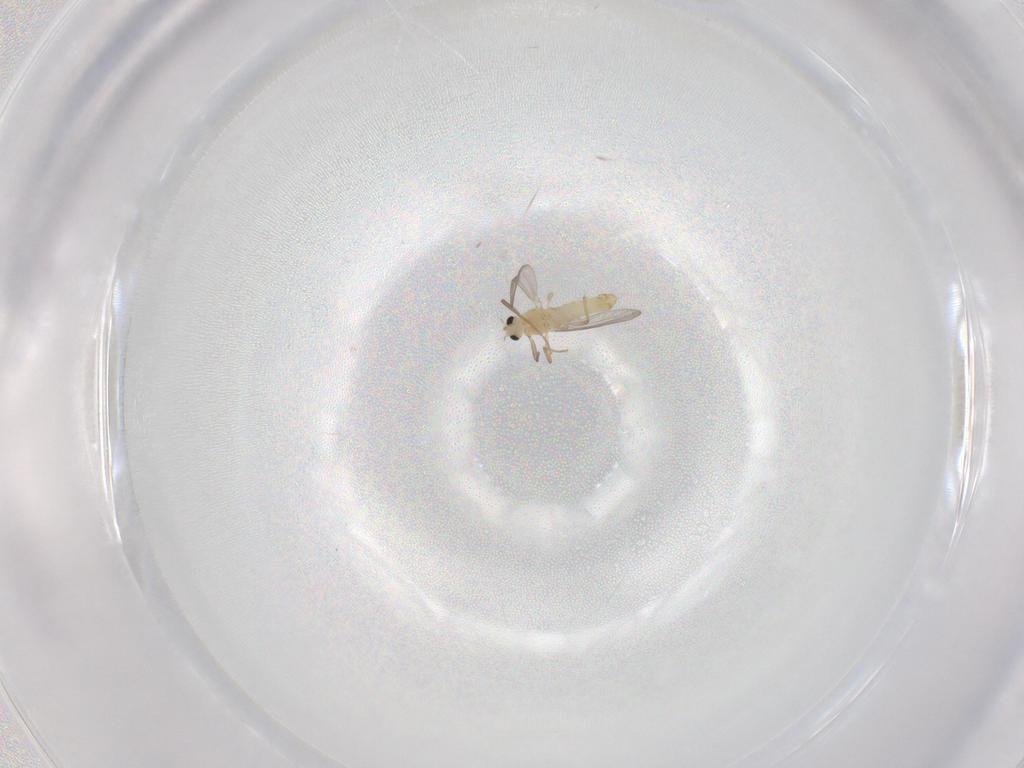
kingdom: Animalia
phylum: Arthropoda
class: Insecta
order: Diptera
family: Chironomidae
